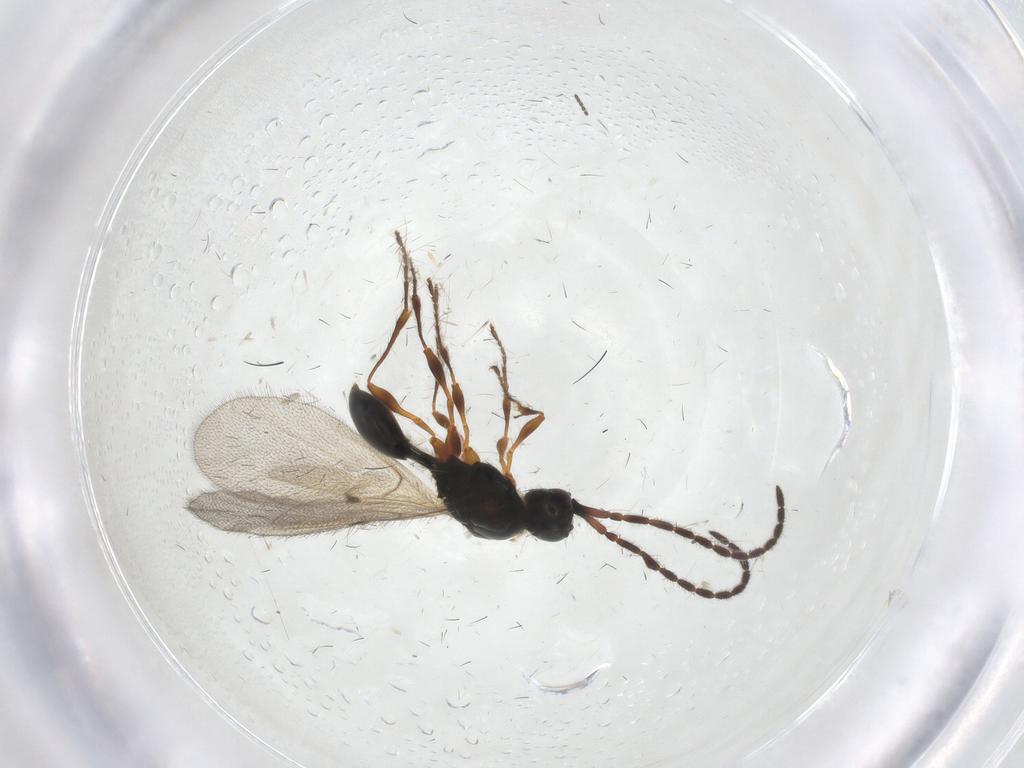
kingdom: Animalia
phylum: Arthropoda
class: Insecta
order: Hymenoptera
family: Diapriidae
